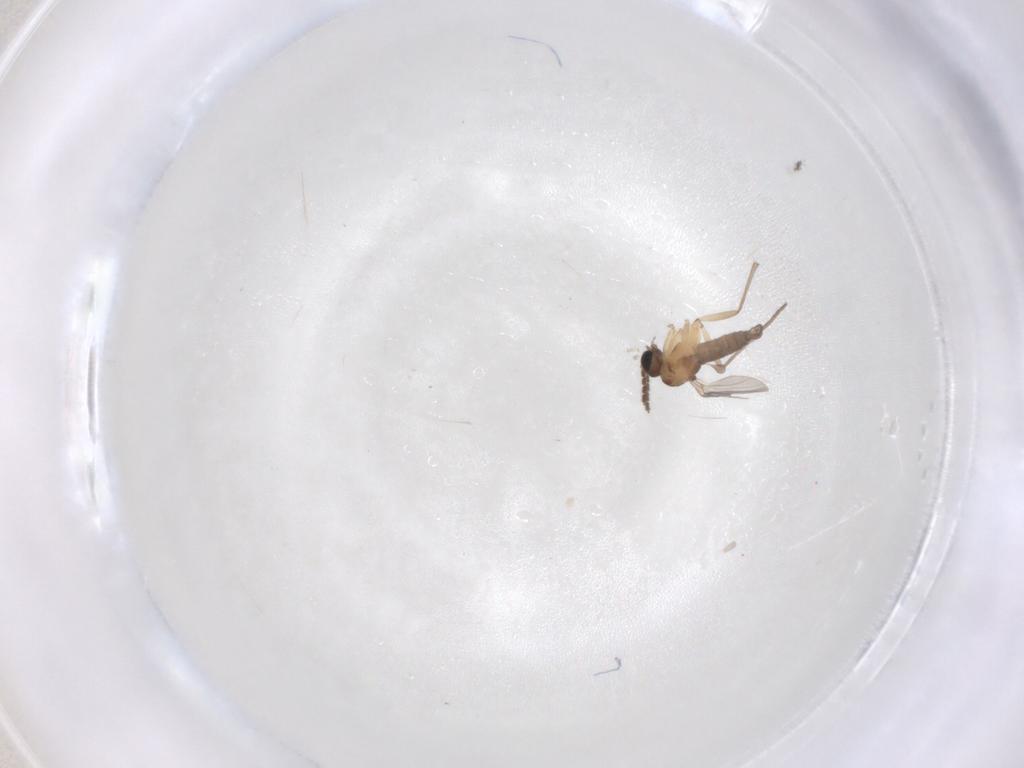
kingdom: Animalia
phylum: Arthropoda
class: Insecta
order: Diptera
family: Sciaridae
